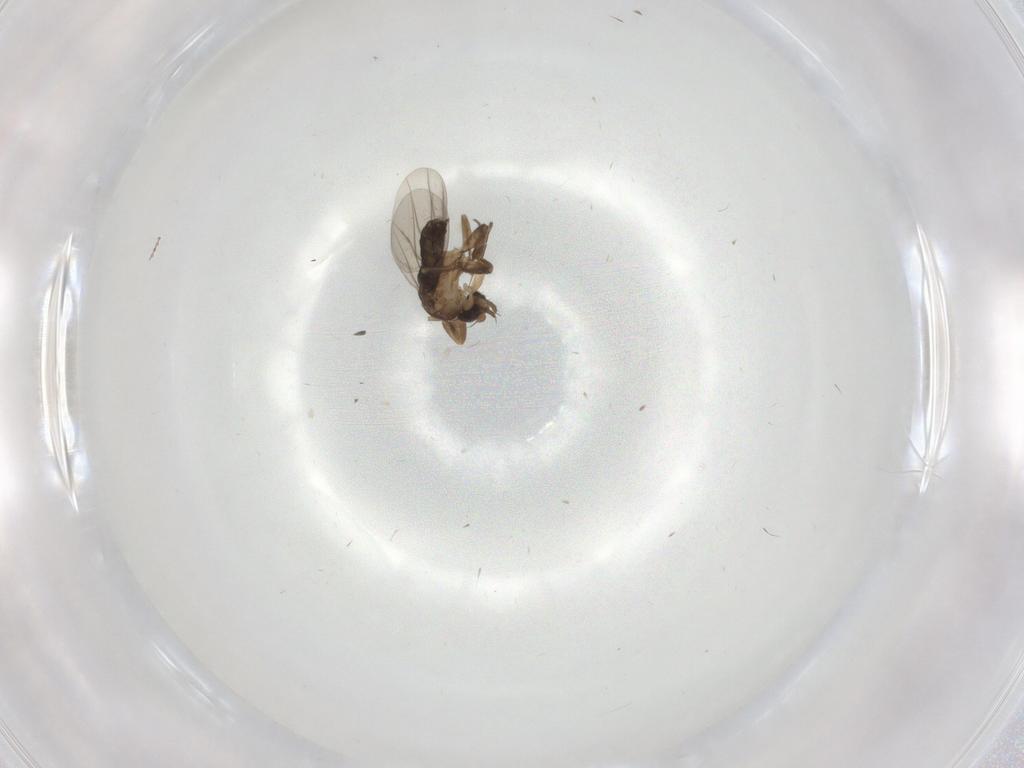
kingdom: Animalia
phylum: Arthropoda
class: Insecta
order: Diptera
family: Phoridae
